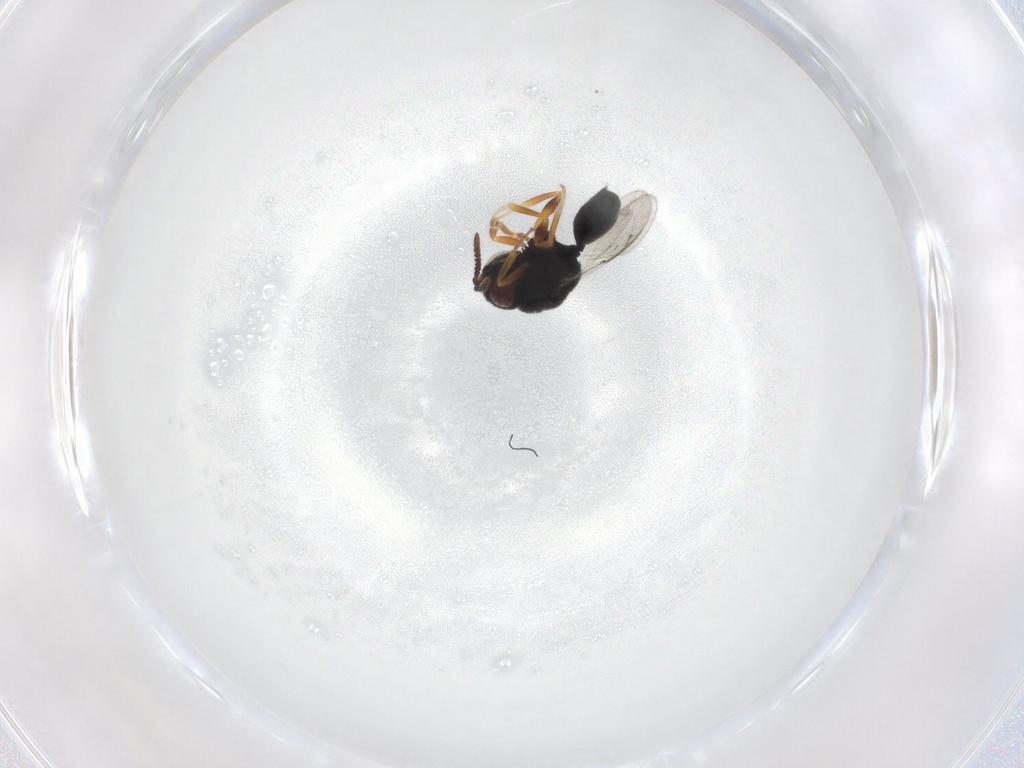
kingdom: Animalia
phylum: Arthropoda
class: Insecta
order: Hymenoptera
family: Eurytomidae
